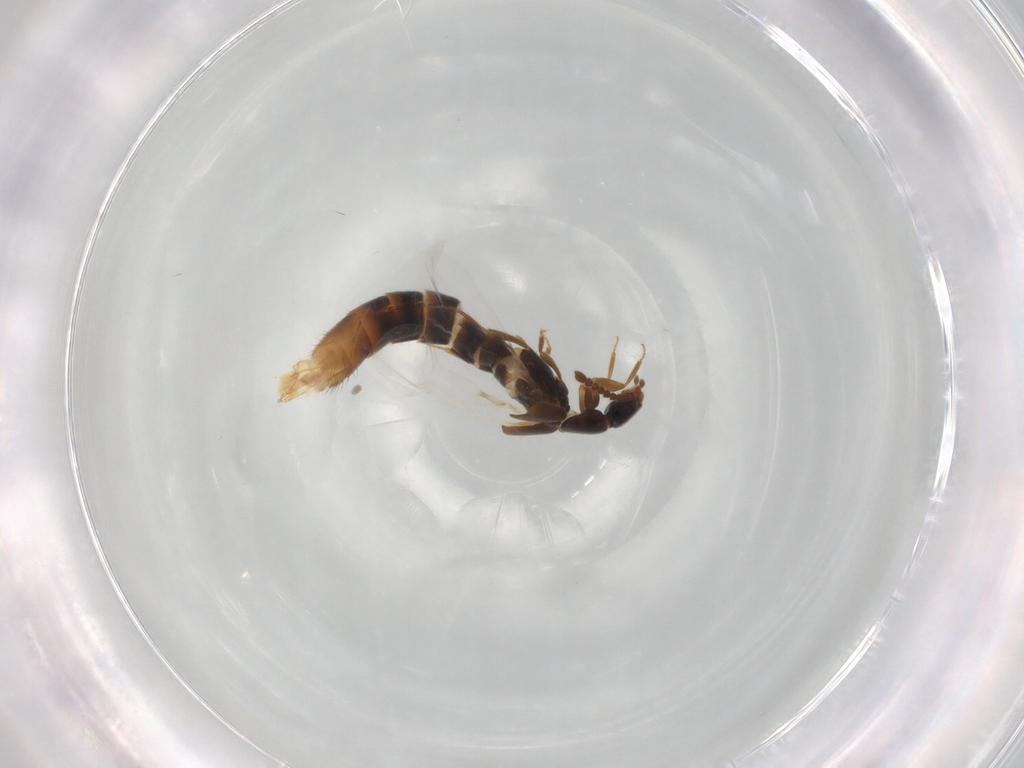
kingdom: Animalia
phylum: Arthropoda
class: Insecta
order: Coleoptera
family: Staphylinidae
